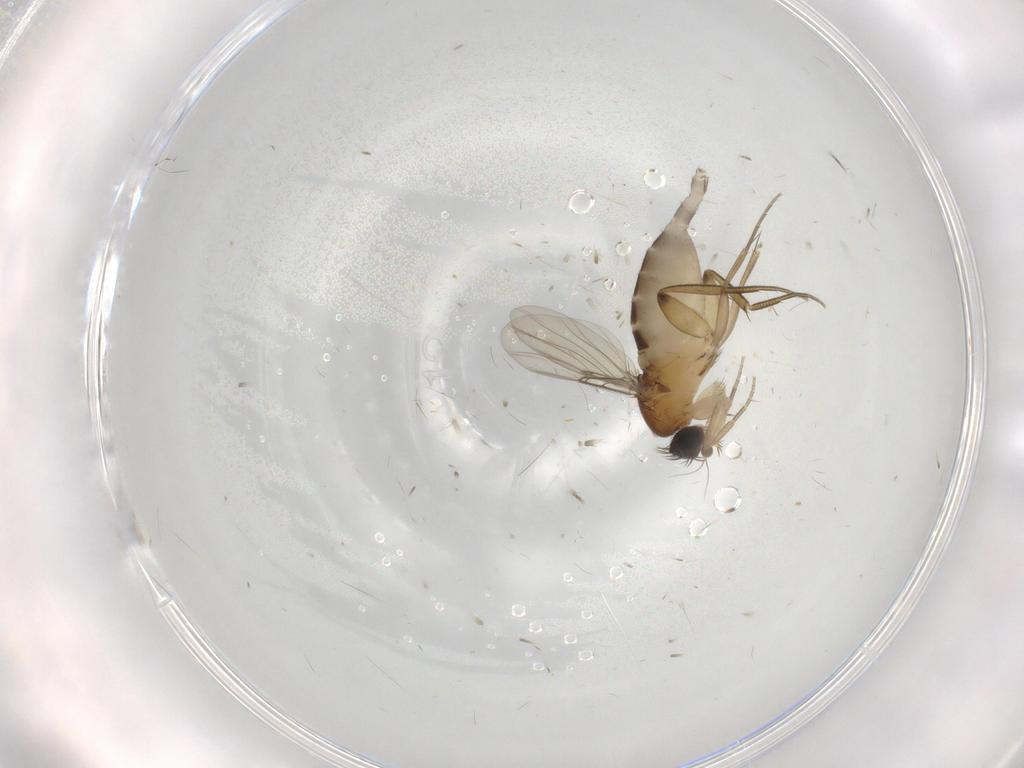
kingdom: Animalia
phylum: Arthropoda
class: Insecta
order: Diptera
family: Phoridae
